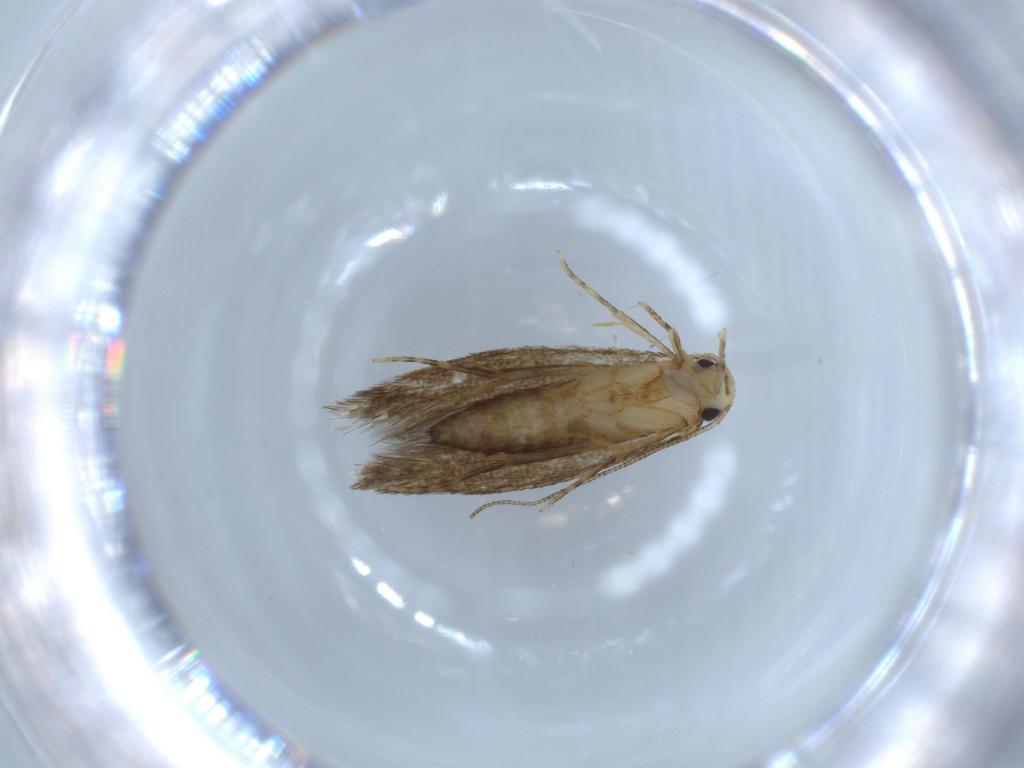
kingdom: Animalia
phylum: Arthropoda
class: Insecta
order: Lepidoptera
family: Tineidae
